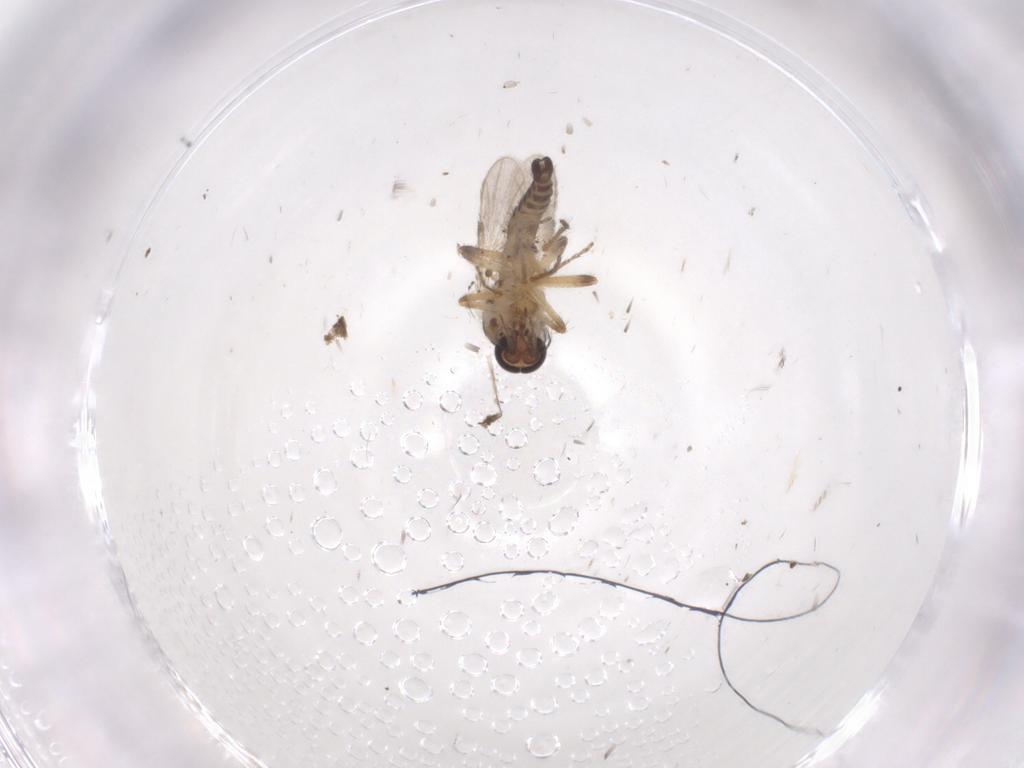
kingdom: Animalia
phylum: Arthropoda
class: Insecta
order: Diptera
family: Ceratopogonidae
